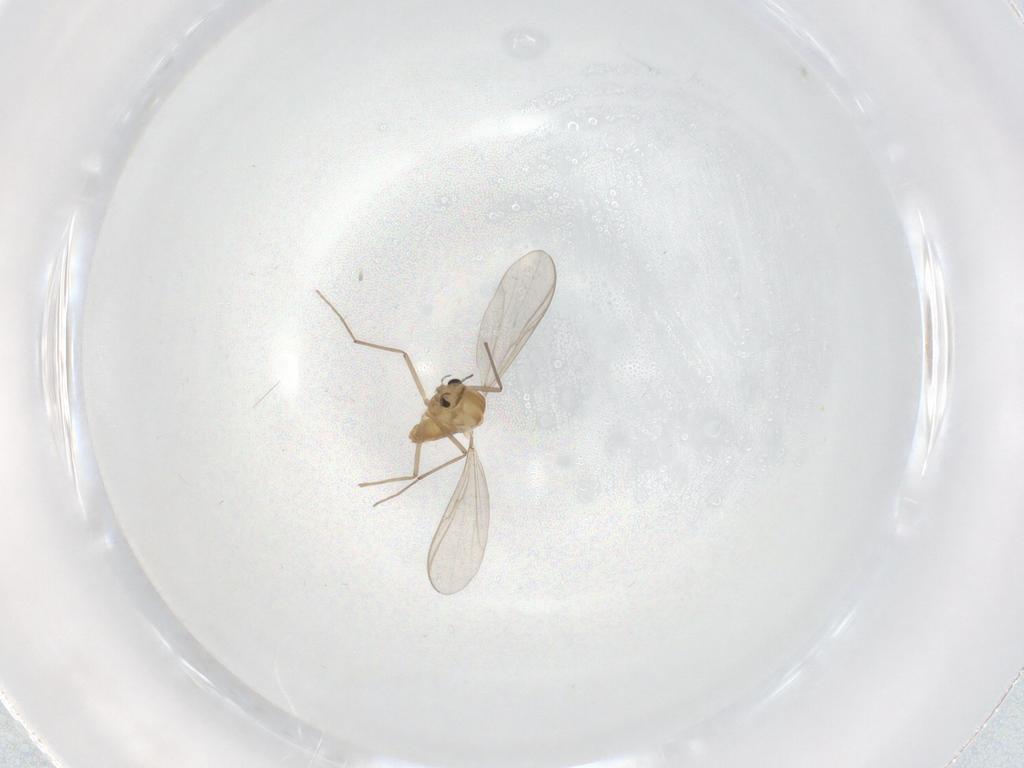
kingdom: Animalia
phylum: Arthropoda
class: Insecta
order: Diptera
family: Chironomidae
